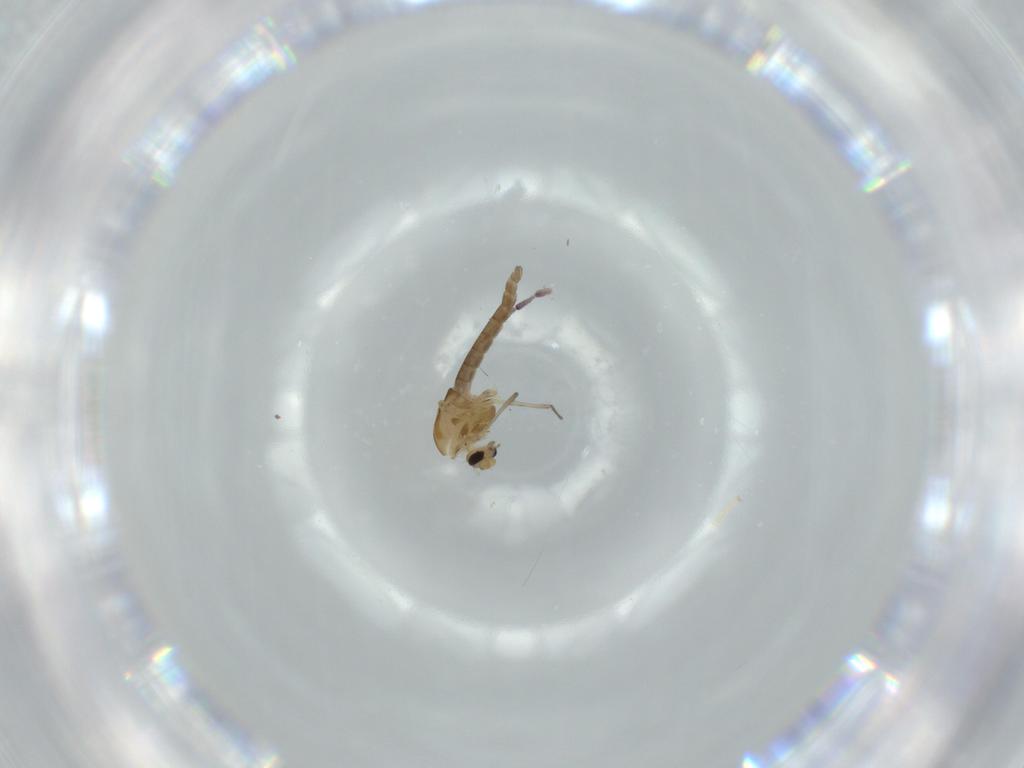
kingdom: Animalia
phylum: Arthropoda
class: Insecta
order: Diptera
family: Chironomidae
